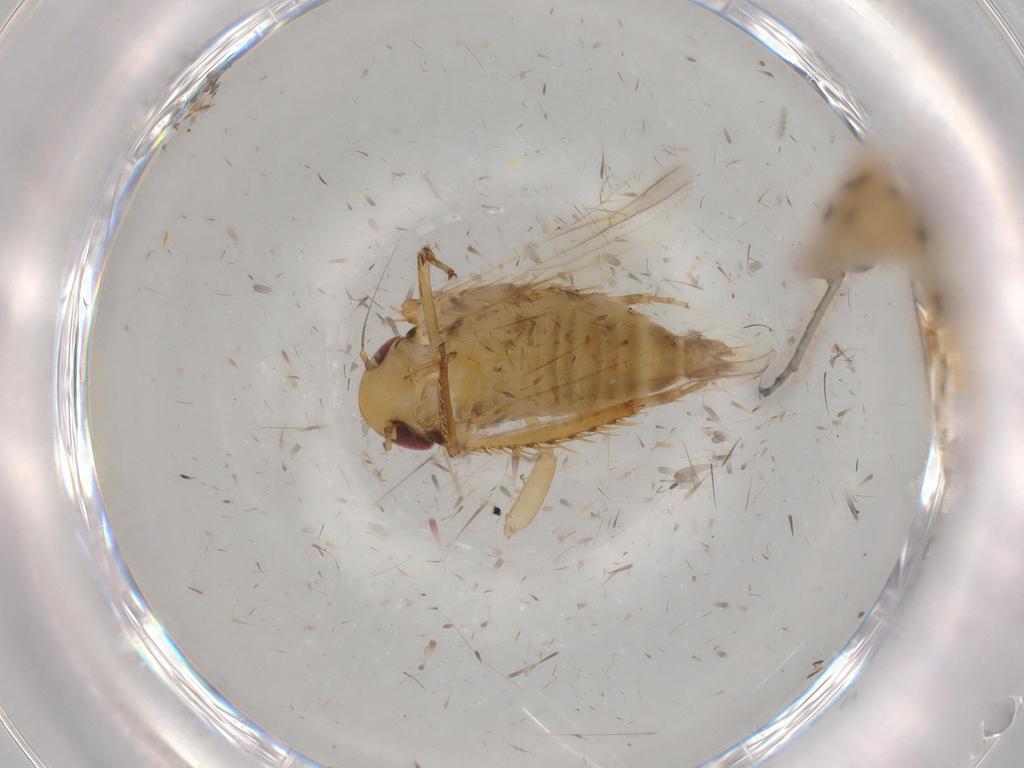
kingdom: Animalia
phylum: Arthropoda
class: Insecta
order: Hemiptera
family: Cicadellidae
